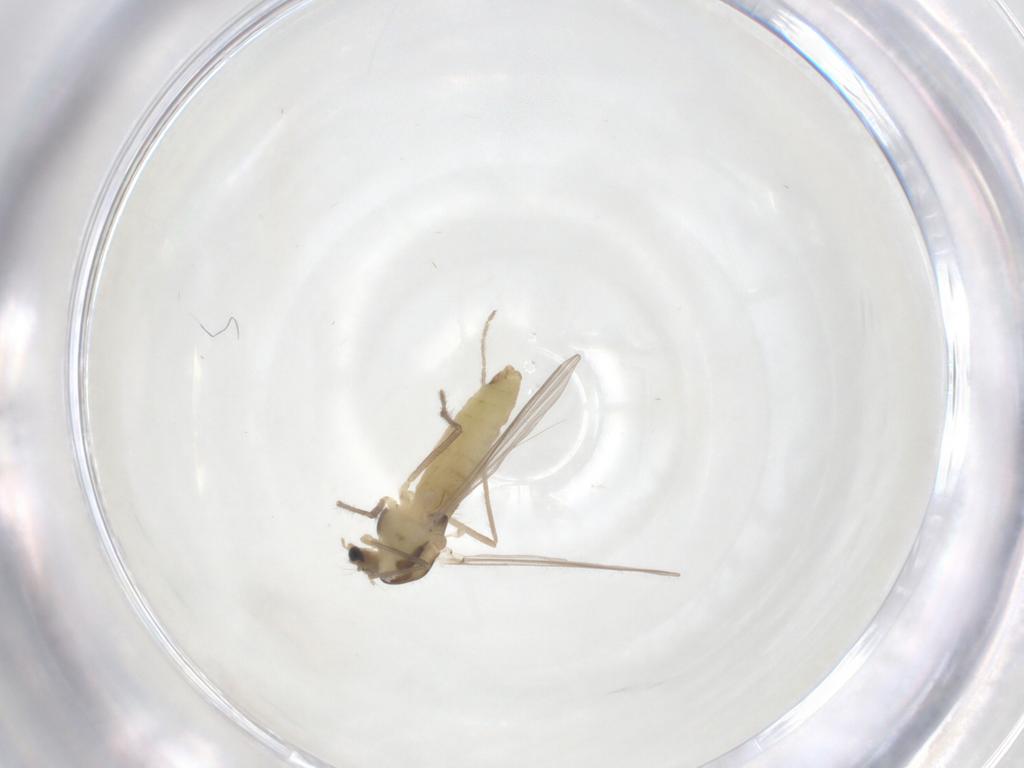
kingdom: Animalia
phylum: Arthropoda
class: Insecta
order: Diptera
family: Chironomidae
